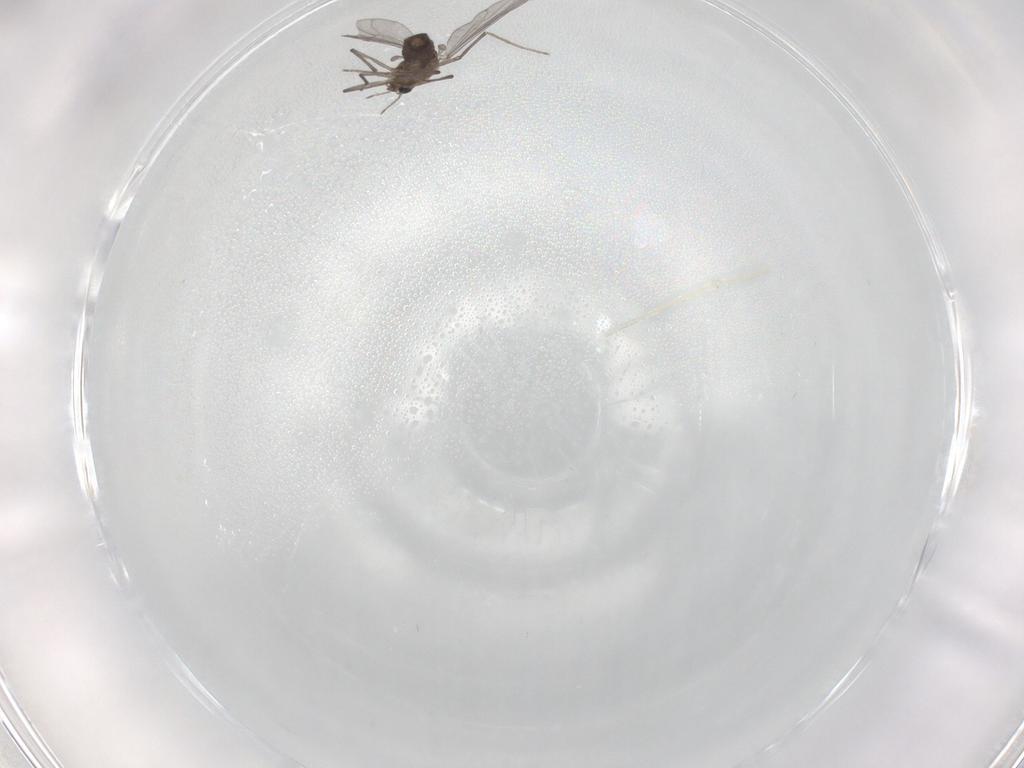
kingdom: Animalia
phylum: Arthropoda
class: Insecta
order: Diptera
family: Chironomidae
